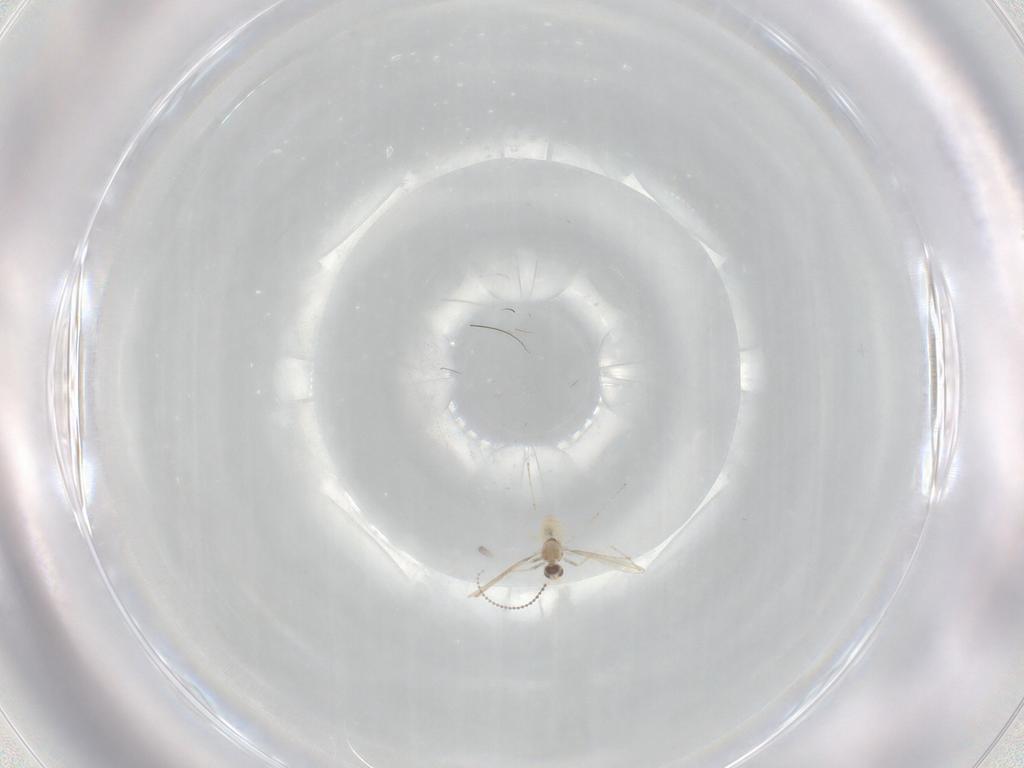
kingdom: Animalia
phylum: Arthropoda
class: Insecta
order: Diptera
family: Cecidomyiidae
